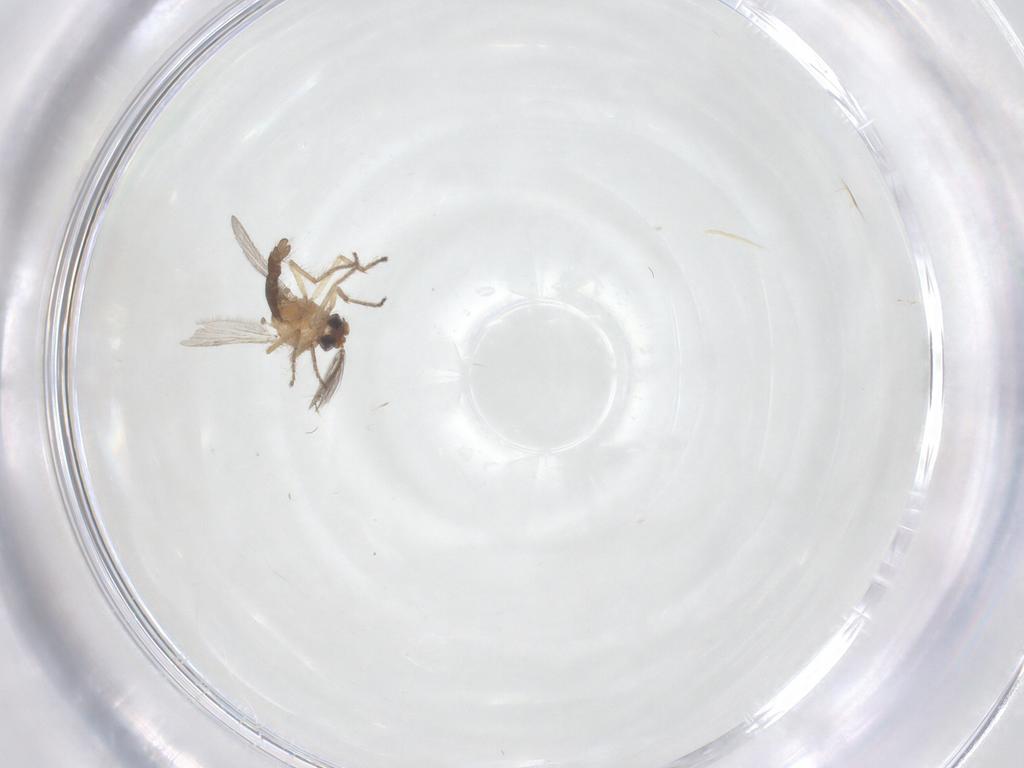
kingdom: Animalia
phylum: Arthropoda
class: Insecta
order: Diptera
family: Ceratopogonidae
